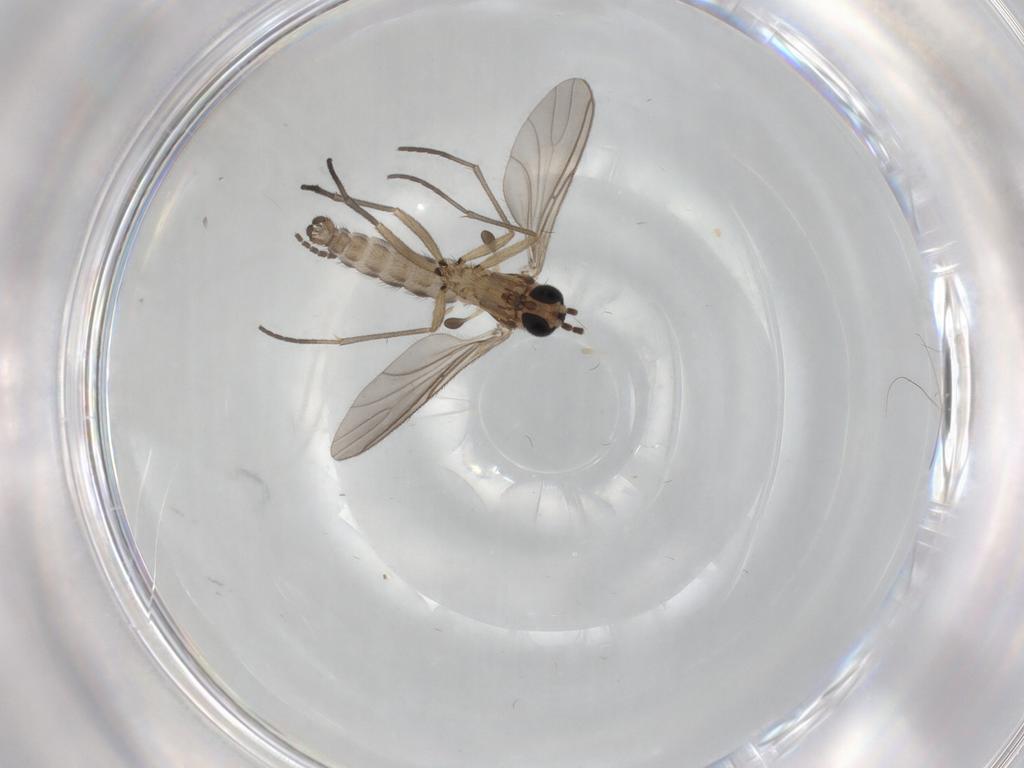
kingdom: Animalia
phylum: Arthropoda
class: Insecta
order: Diptera
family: Sciaridae
